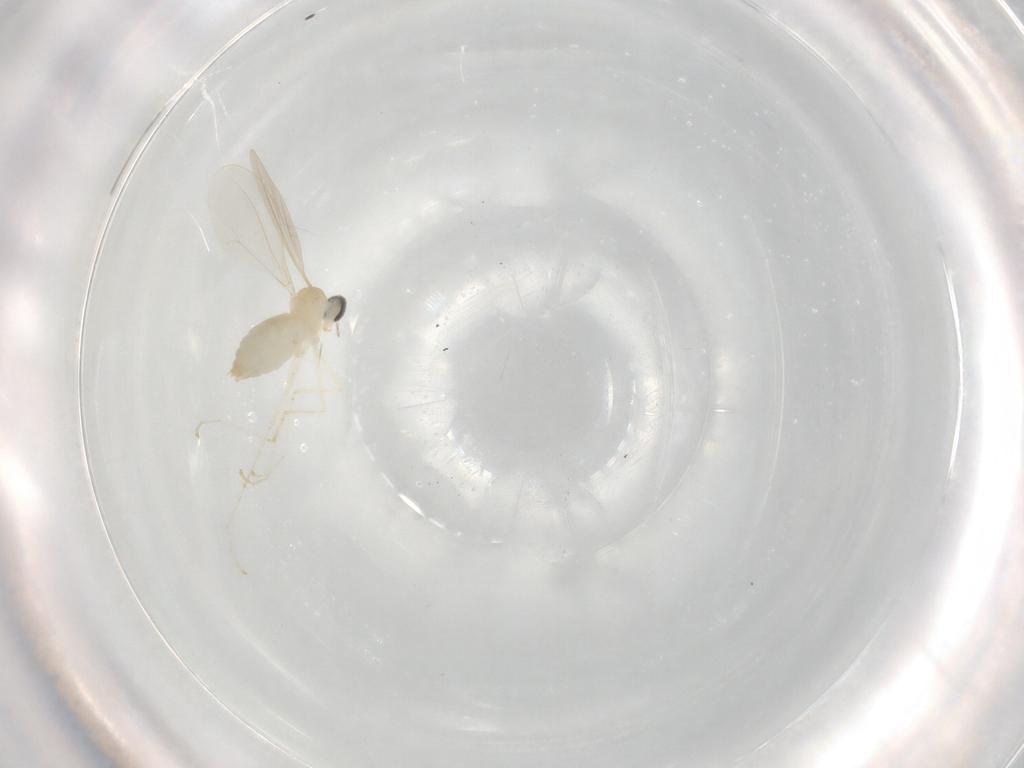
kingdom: Animalia
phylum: Arthropoda
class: Insecta
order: Diptera
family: Cecidomyiidae
